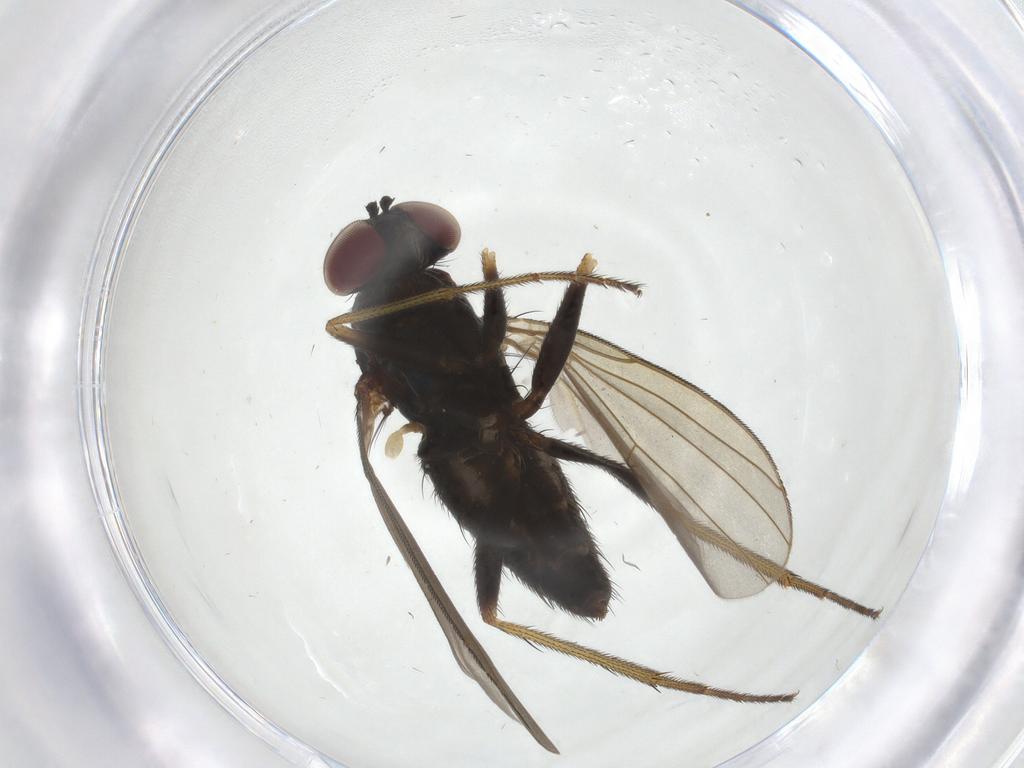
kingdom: Animalia
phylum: Arthropoda
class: Insecta
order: Diptera
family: Dolichopodidae
